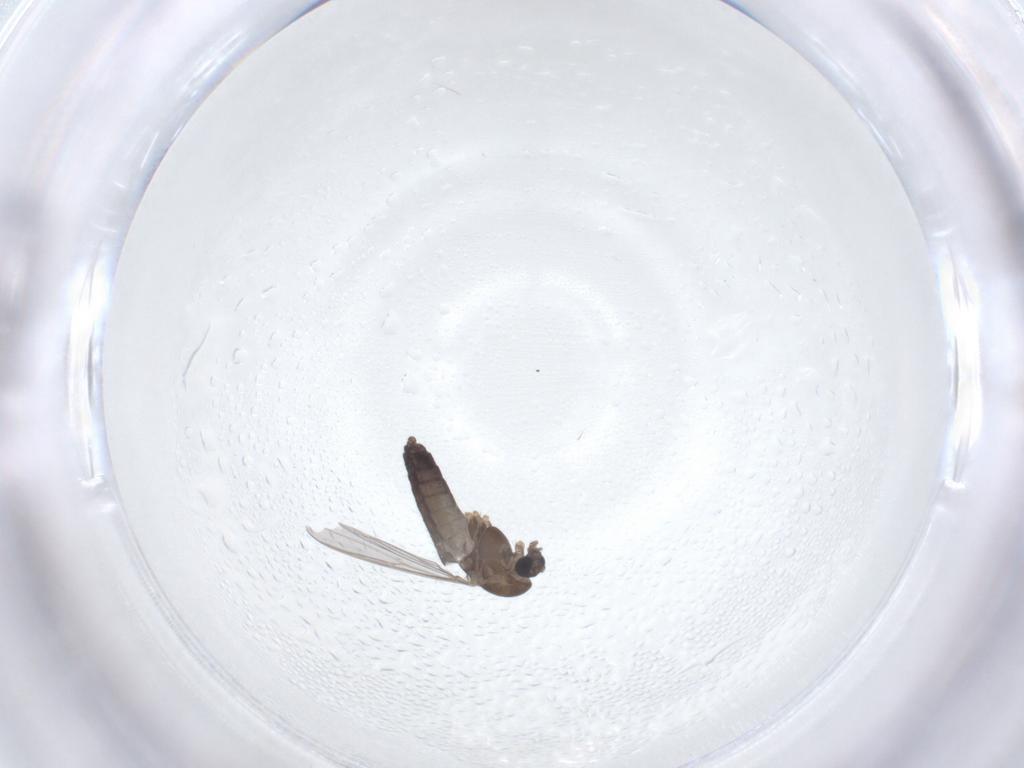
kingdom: Animalia
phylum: Arthropoda
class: Insecta
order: Diptera
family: Chironomidae
